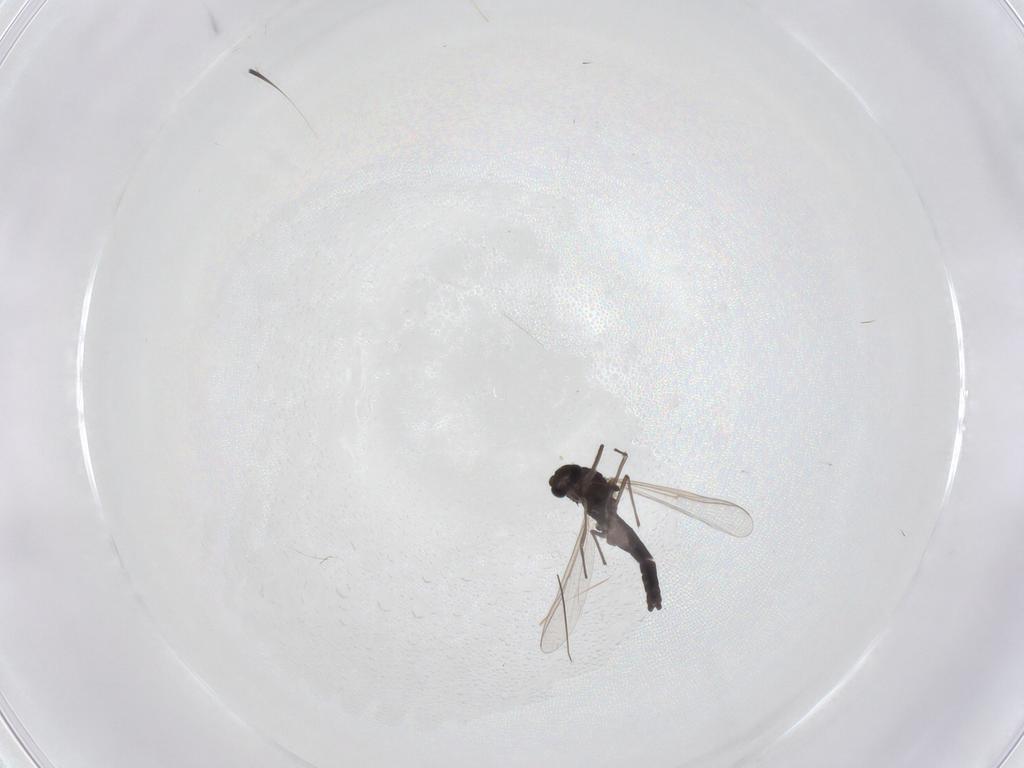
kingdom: Animalia
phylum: Arthropoda
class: Insecta
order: Diptera
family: Chironomidae
